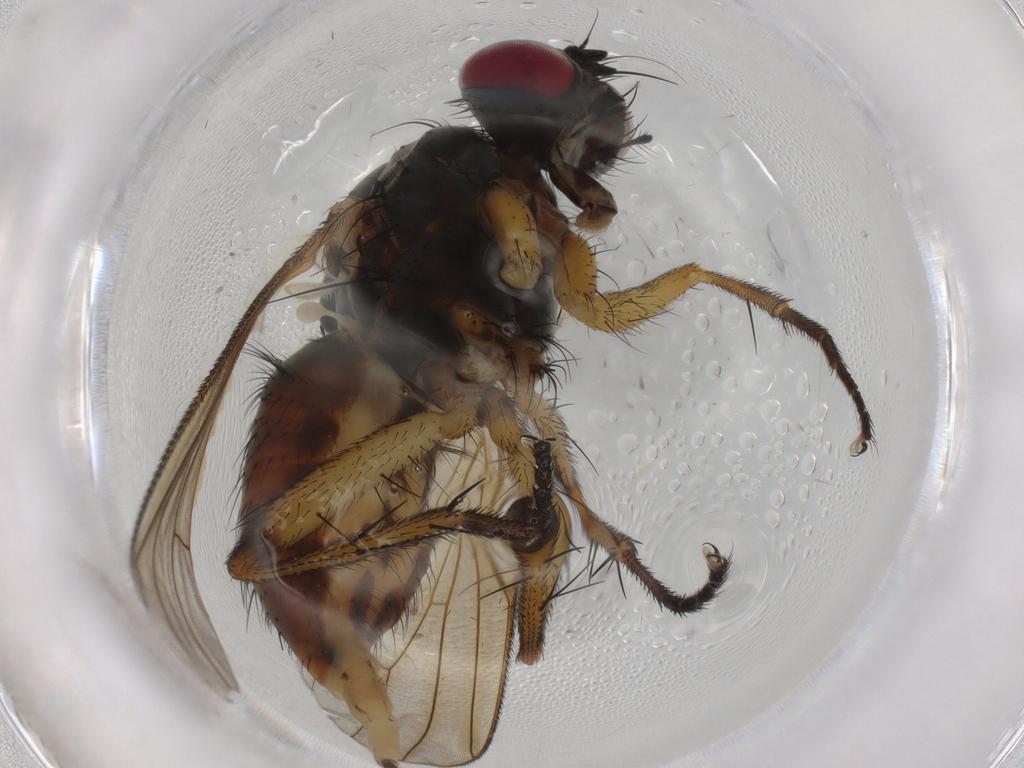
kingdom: Animalia
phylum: Arthropoda
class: Insecta
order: Diptera
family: Muscidae
